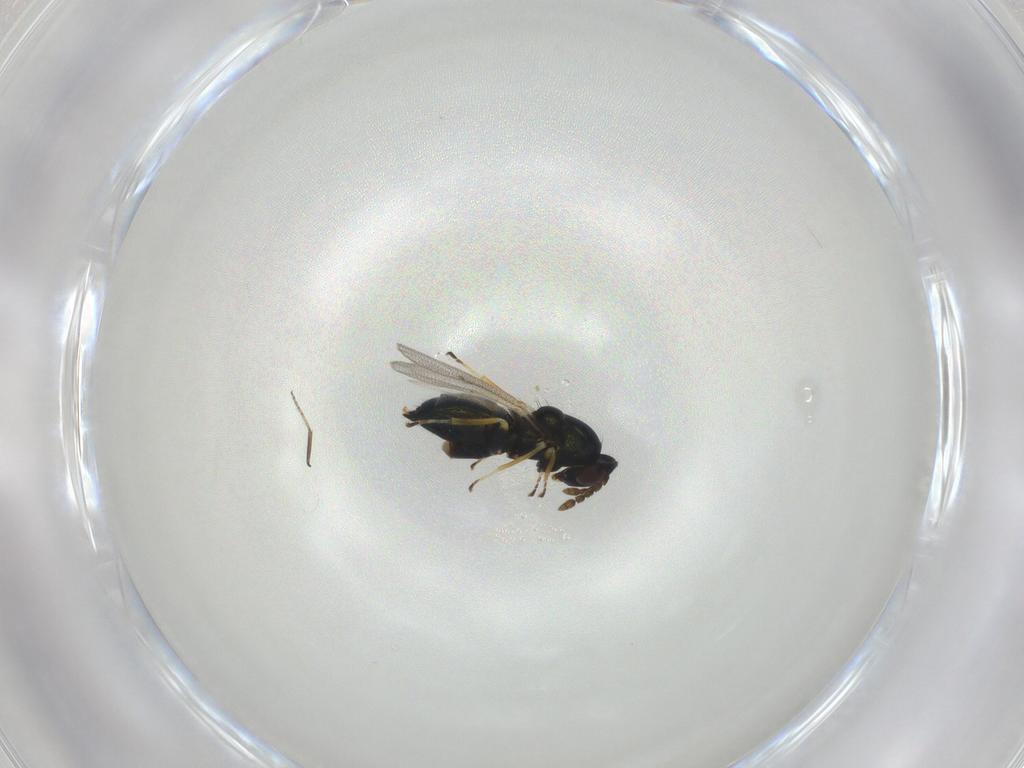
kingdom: Animalia
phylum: Arthropoda
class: Insecta
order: Hymenoptera
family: Eulophidae
